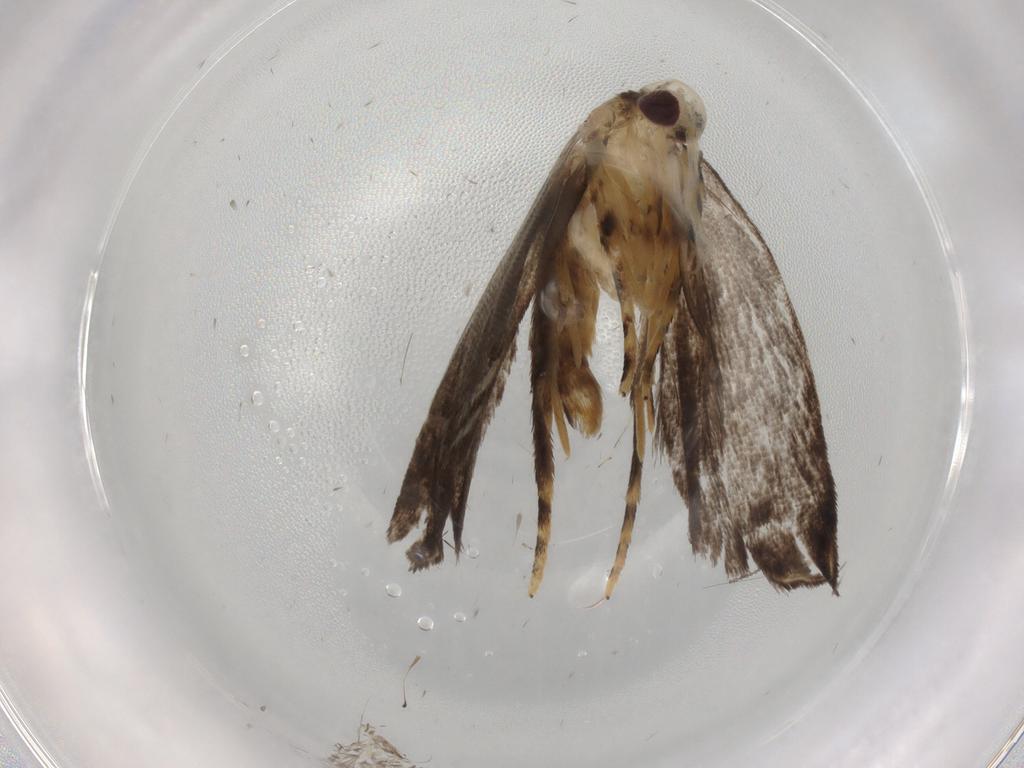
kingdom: Animalia
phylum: Arthropoda
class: Insecta
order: Lepidoptera
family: Gelechiidae
